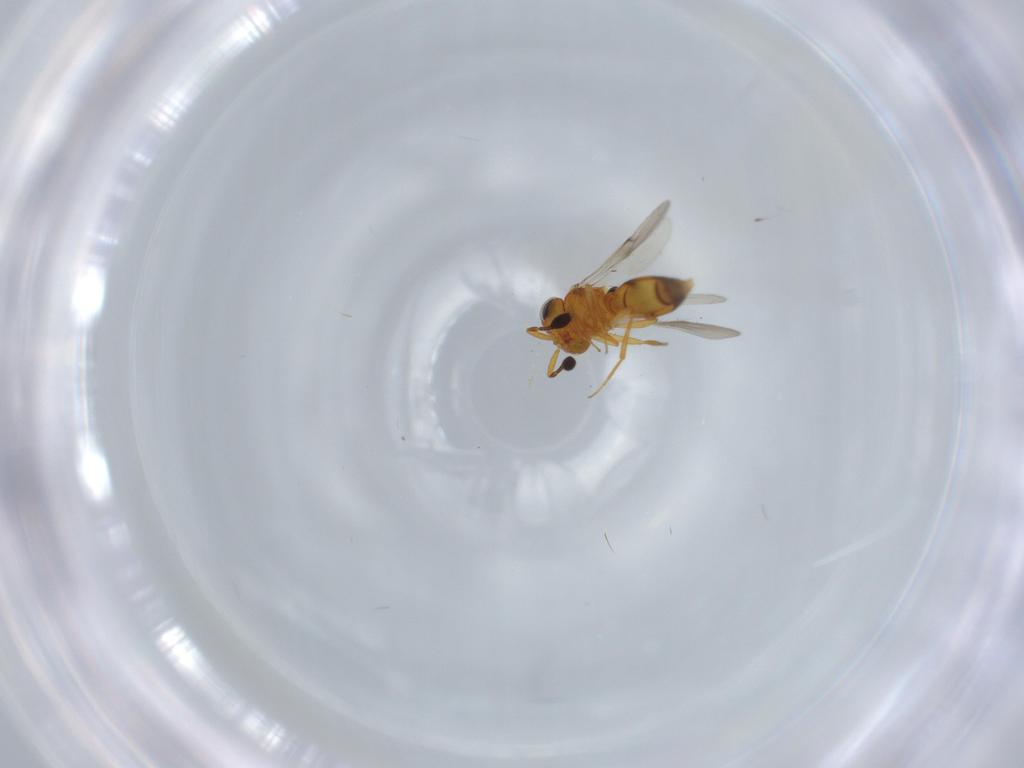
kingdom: Animalia
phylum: Arthropoda
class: Insecta
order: Hymenoptera
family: Scelionidae
